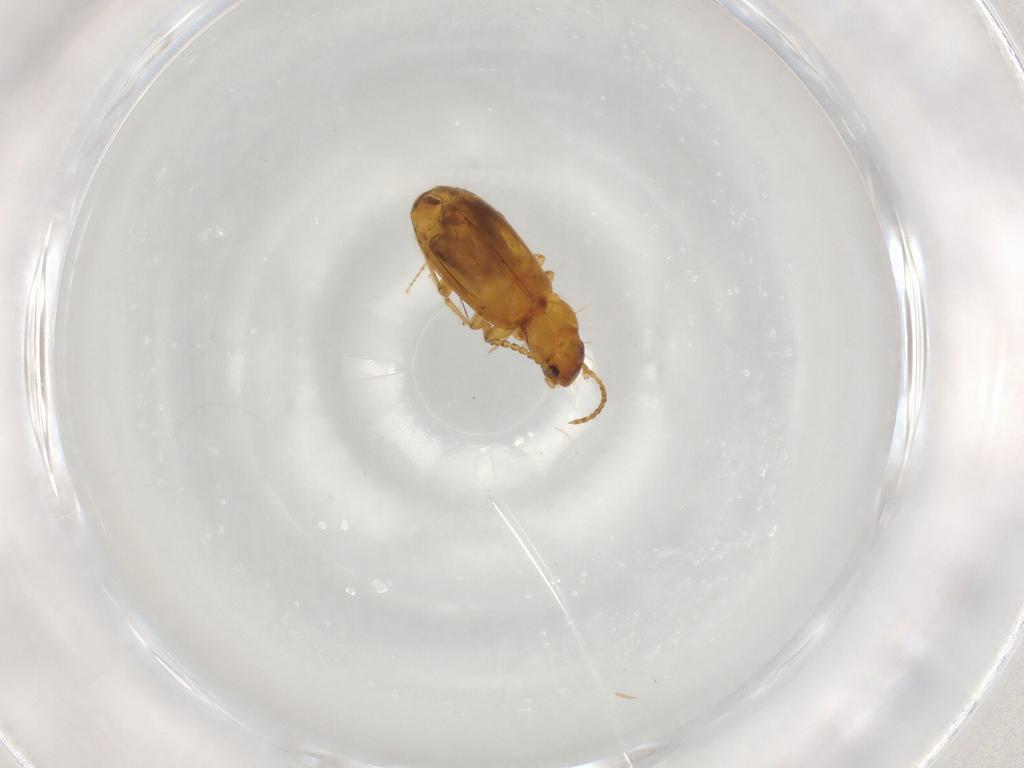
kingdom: Animalia
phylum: Arthropoda
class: Insecta
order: Coleoptera
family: Carabidae
